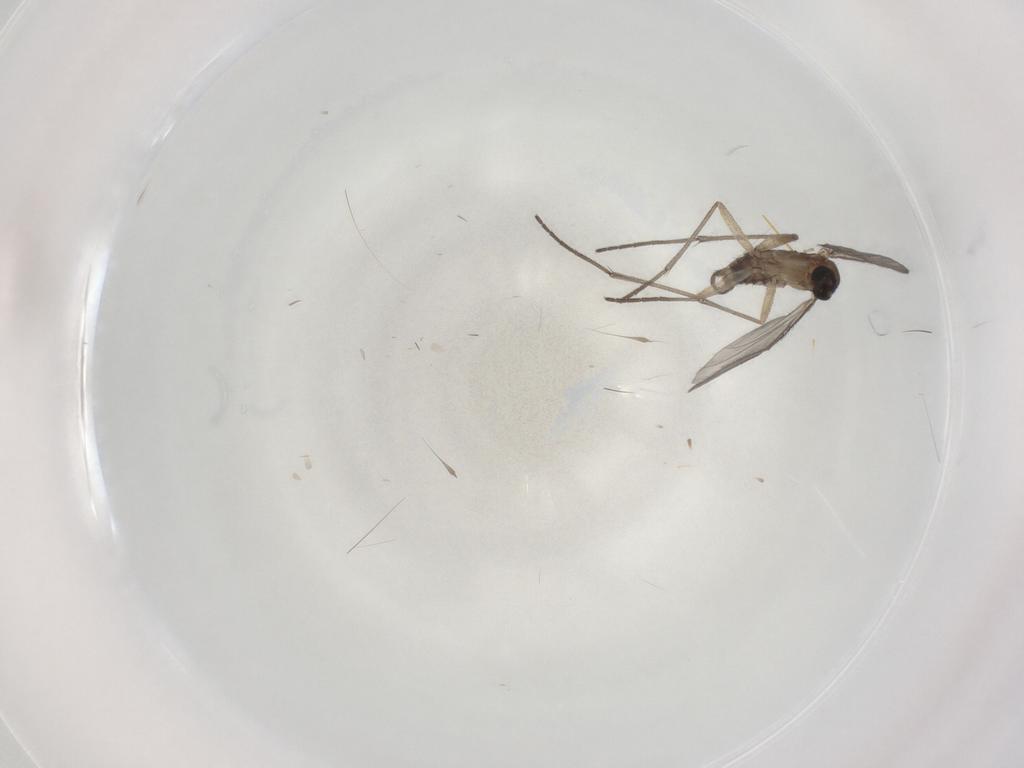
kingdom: Animalia
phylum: Arthropoda
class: Insecta
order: Diptera
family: Sciaridae
